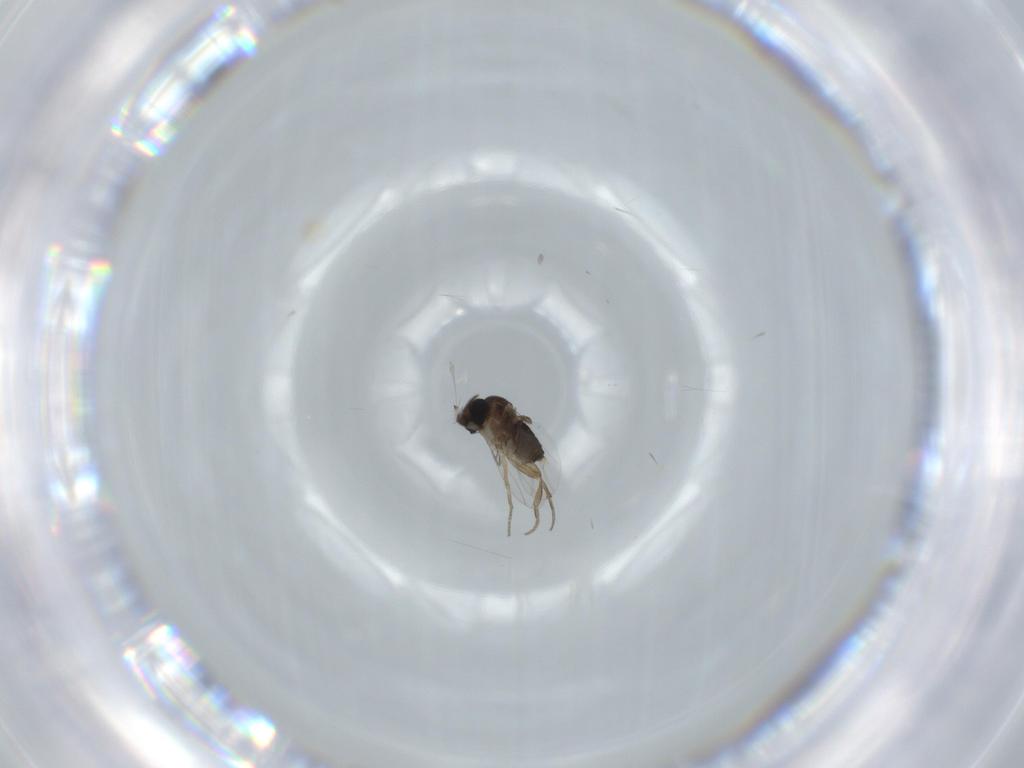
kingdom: Animalia
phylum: Arthropoda
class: Insecta
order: Diptera
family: Phoridae
